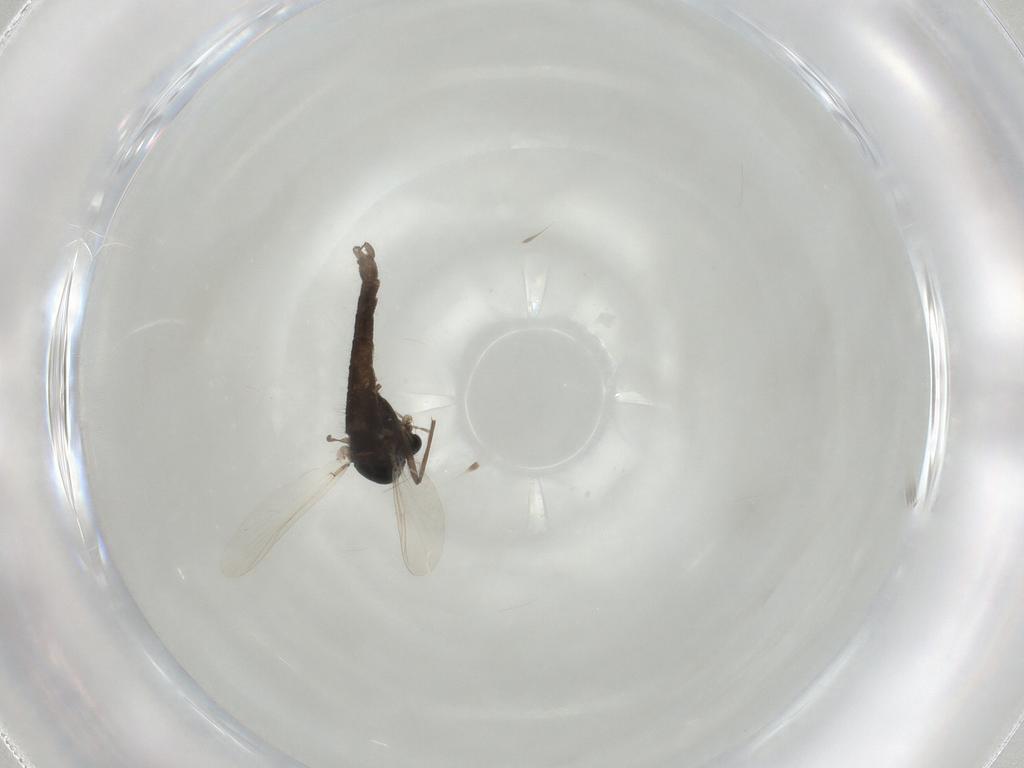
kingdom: Animalia
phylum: Arthropoda
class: Insecta
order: Diptera
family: Chironomidae
